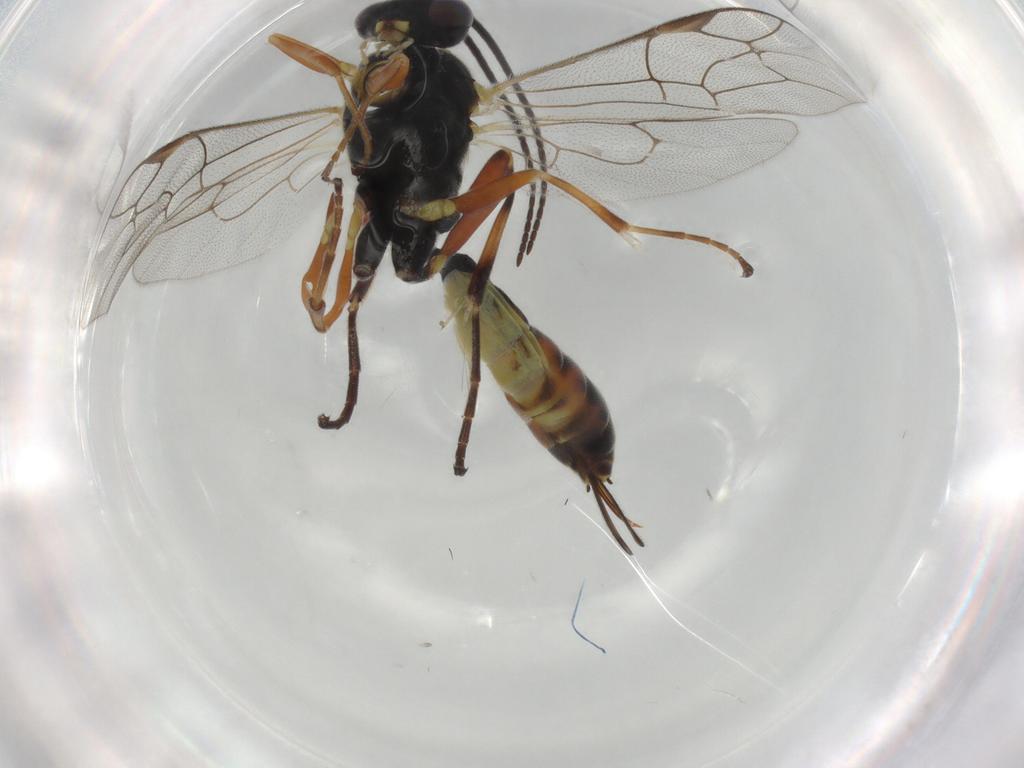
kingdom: Animalia
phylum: Arthropoda
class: Insecta
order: Hymenoptera
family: Ichneumonidae
